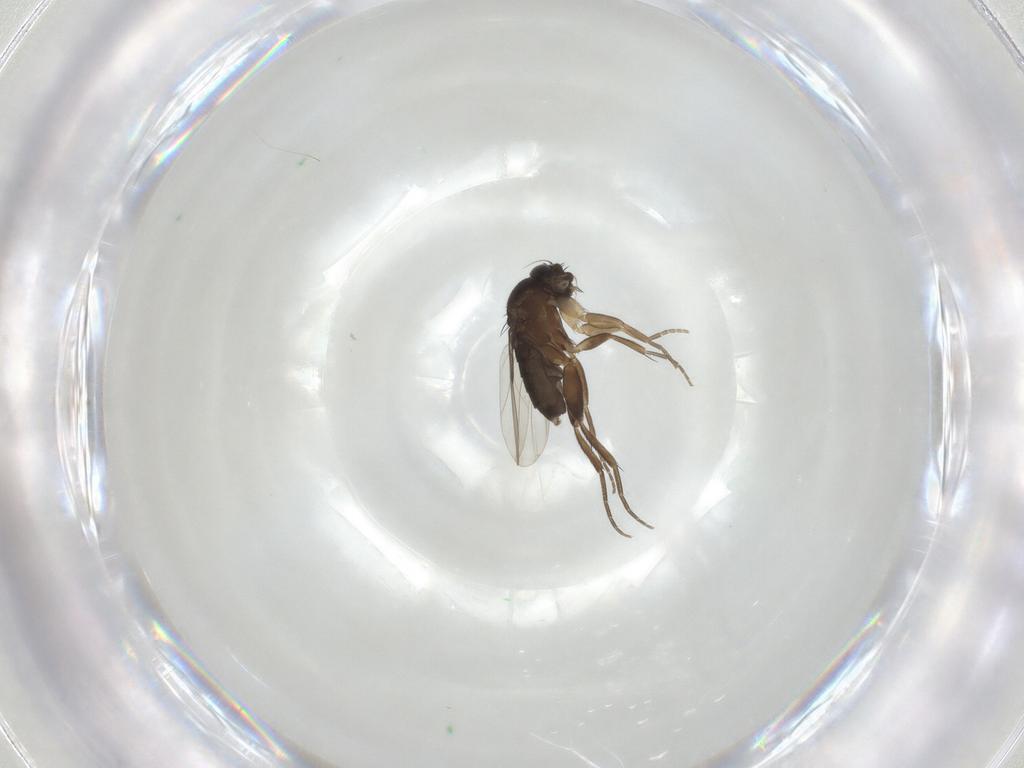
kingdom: Animalia
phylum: Arthropoda
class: Insecta
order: Diptera
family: Phoridae
